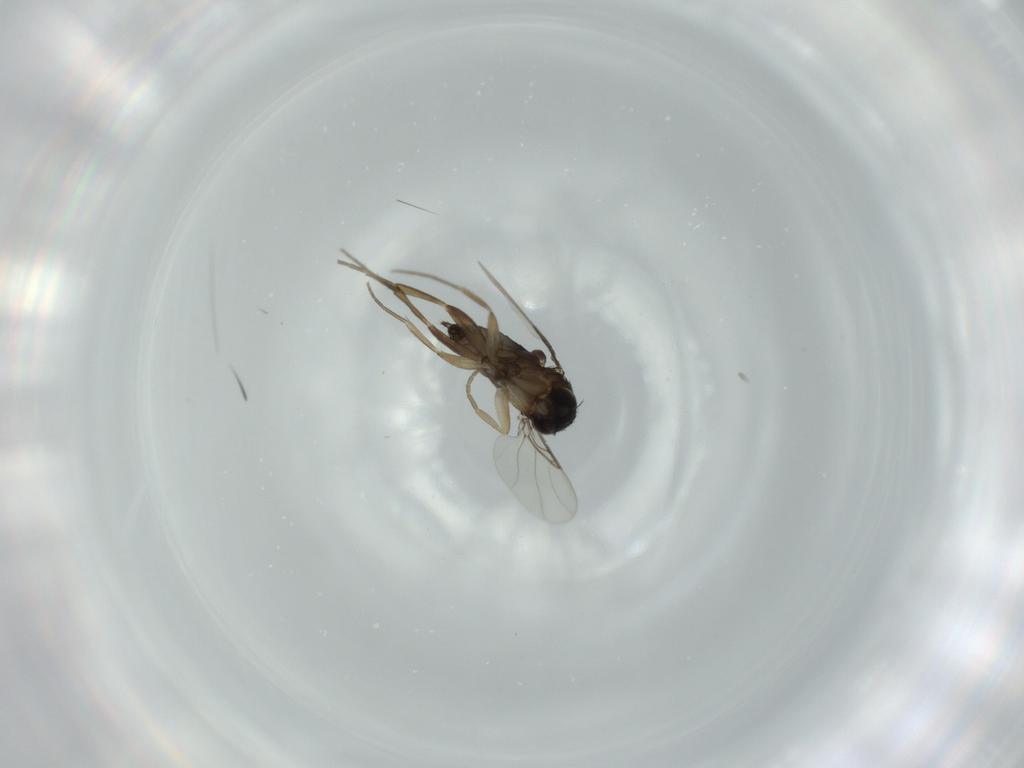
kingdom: Animalia
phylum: Arthropoda
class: Insecta
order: Diptera
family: Phoridae
